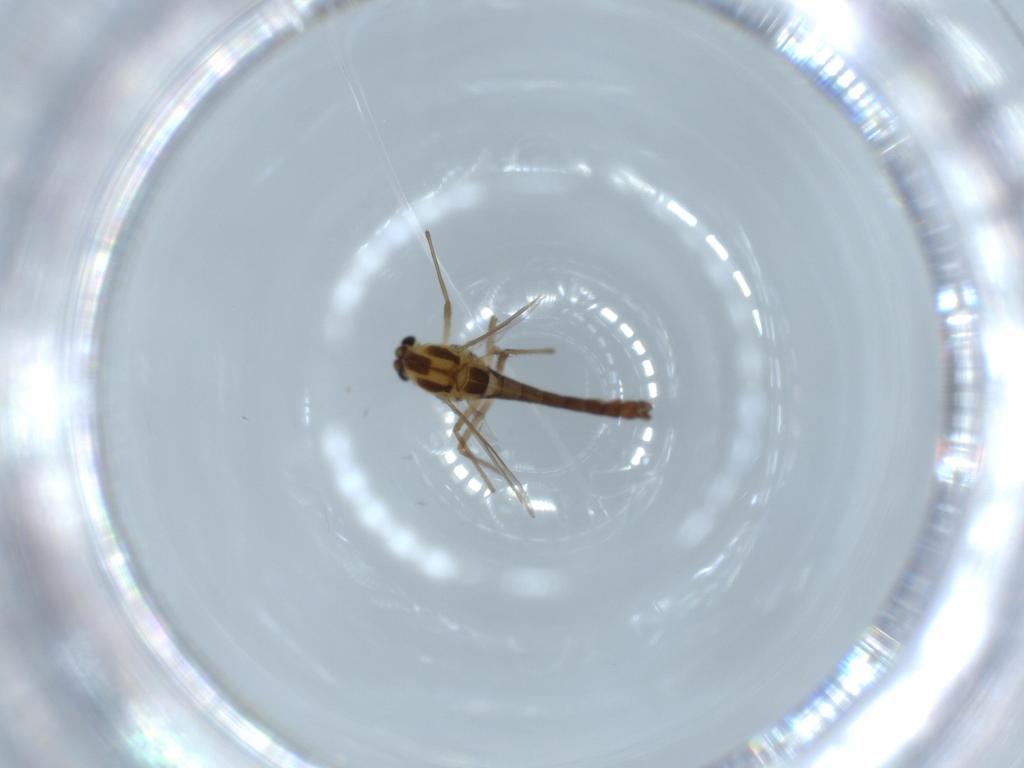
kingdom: Animalia
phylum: Arthropoda
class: Insecta
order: Diptera
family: Chironomidae
